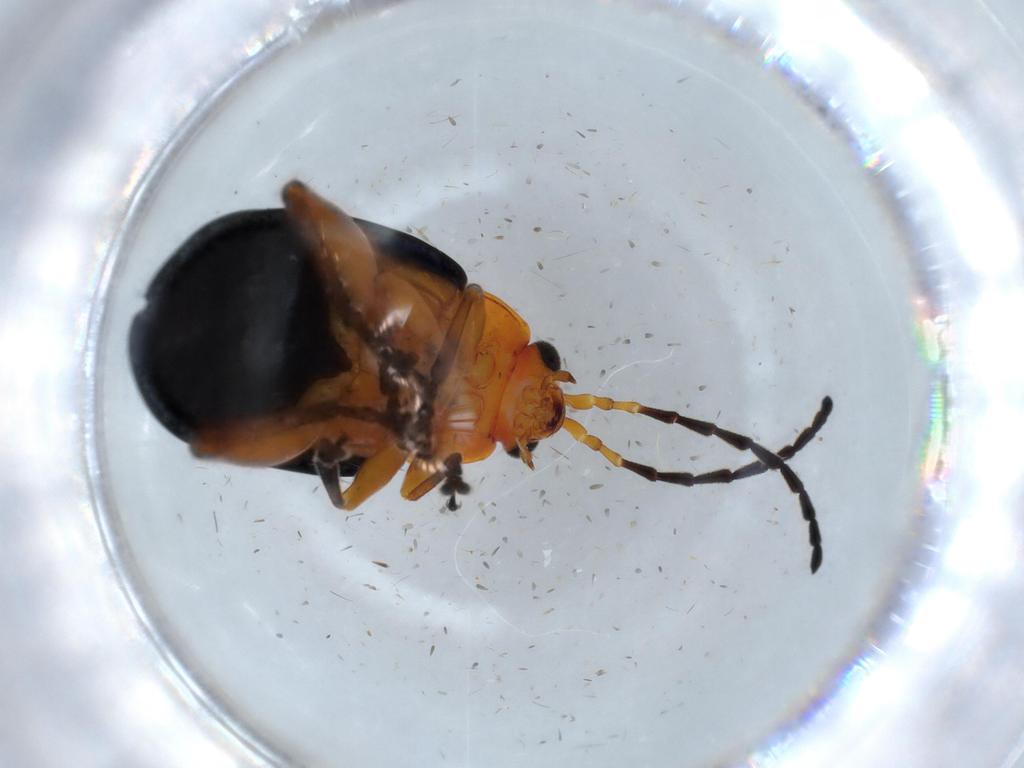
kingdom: Animalia
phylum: Arthropoda
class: Insecta
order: Coleoptera
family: Chrysomelidae
